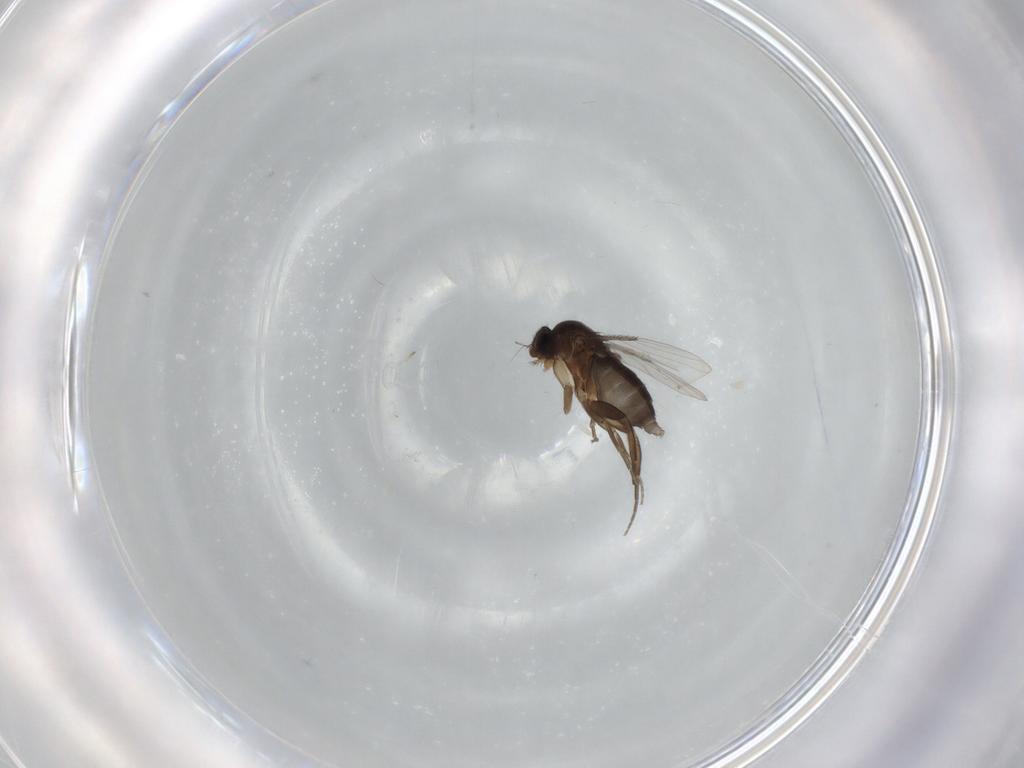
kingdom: Animalia
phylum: Arthropoda
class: Insecta
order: Diptera
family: Phoridae
